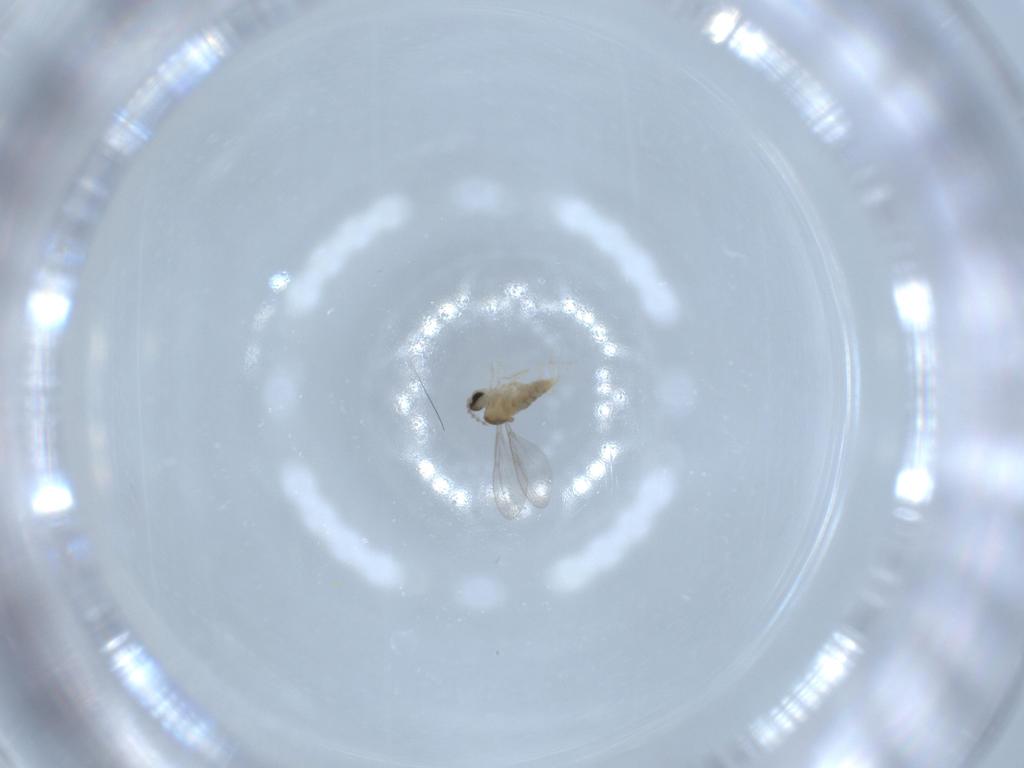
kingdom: Animalia
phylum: Arthropoda
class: Insecta
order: Diptera
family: Cecidomyiidae
